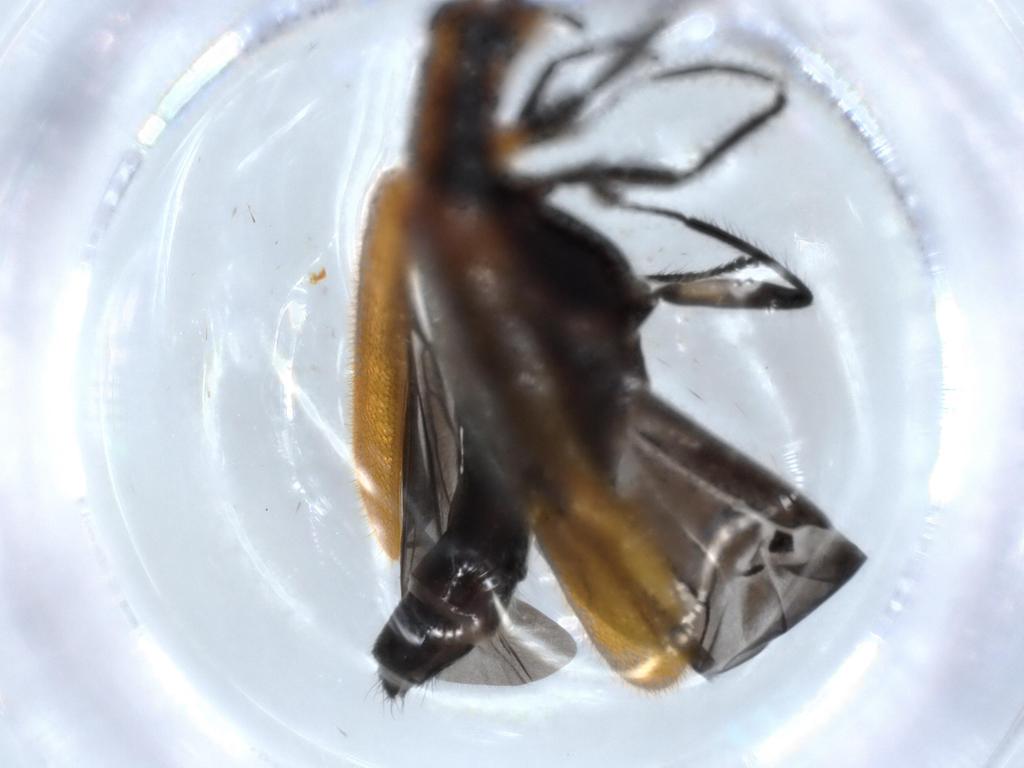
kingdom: Animalia
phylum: Arthropoda
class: Insecta
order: Coleoptera
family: Cleridae
